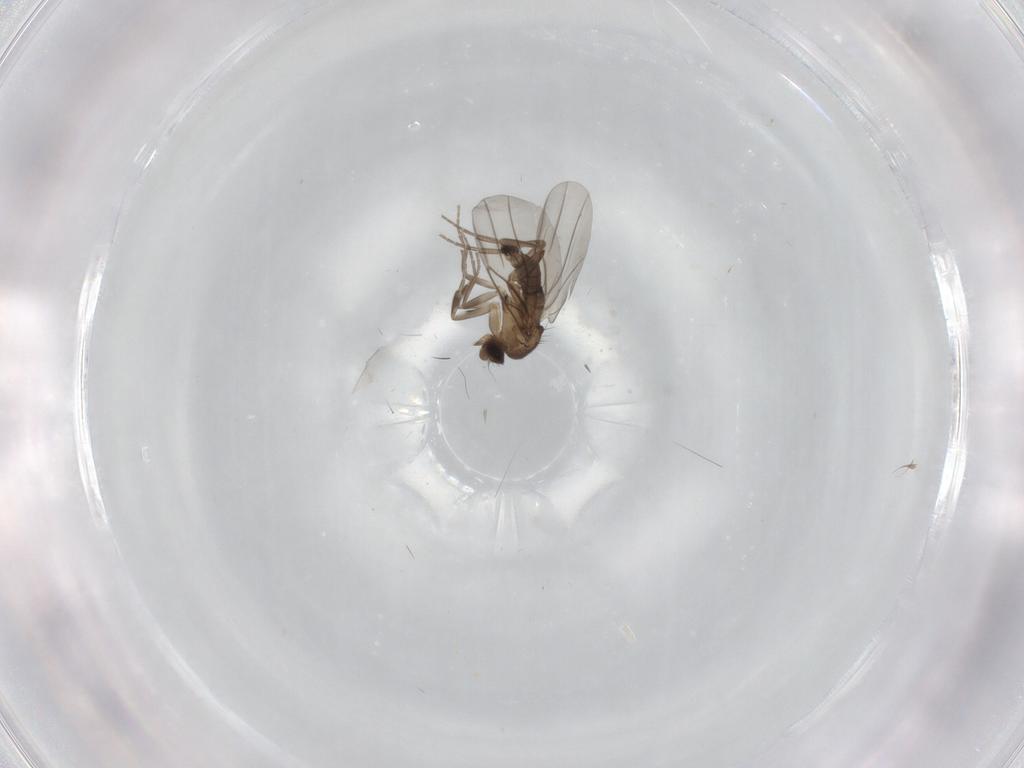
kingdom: Animalia
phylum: Arthropoda
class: Insecta
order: Diptera
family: Phoridae
